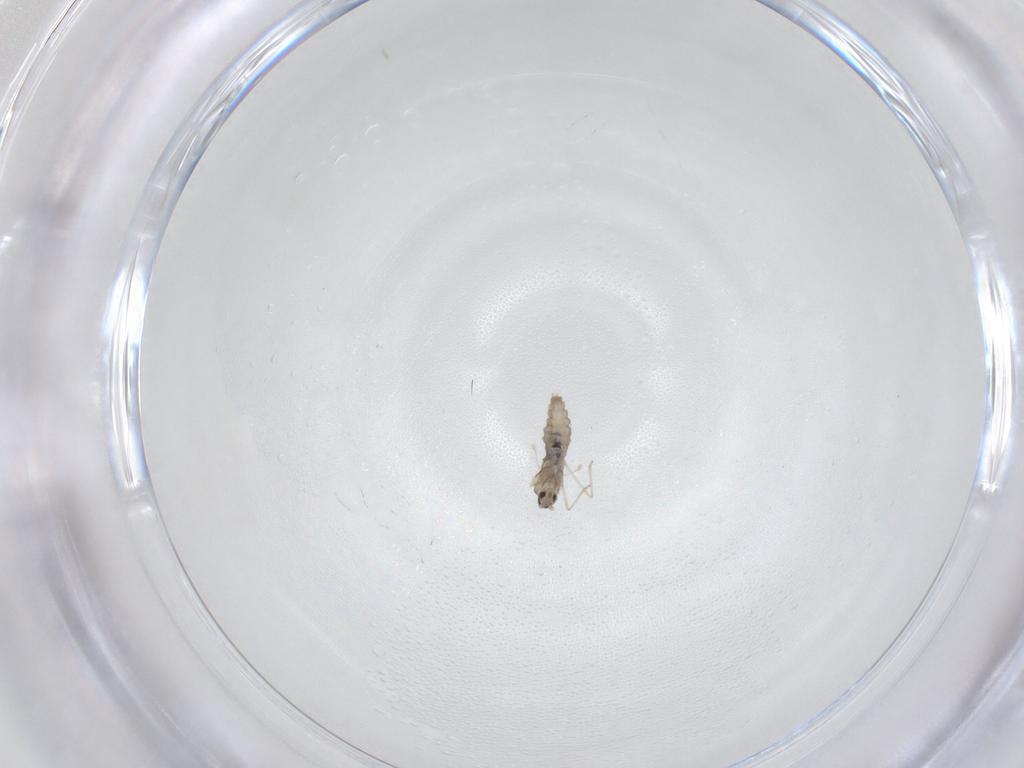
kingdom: Animalia
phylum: Arthropoda
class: Insecta
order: Diptera
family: Cecidomyiidae
